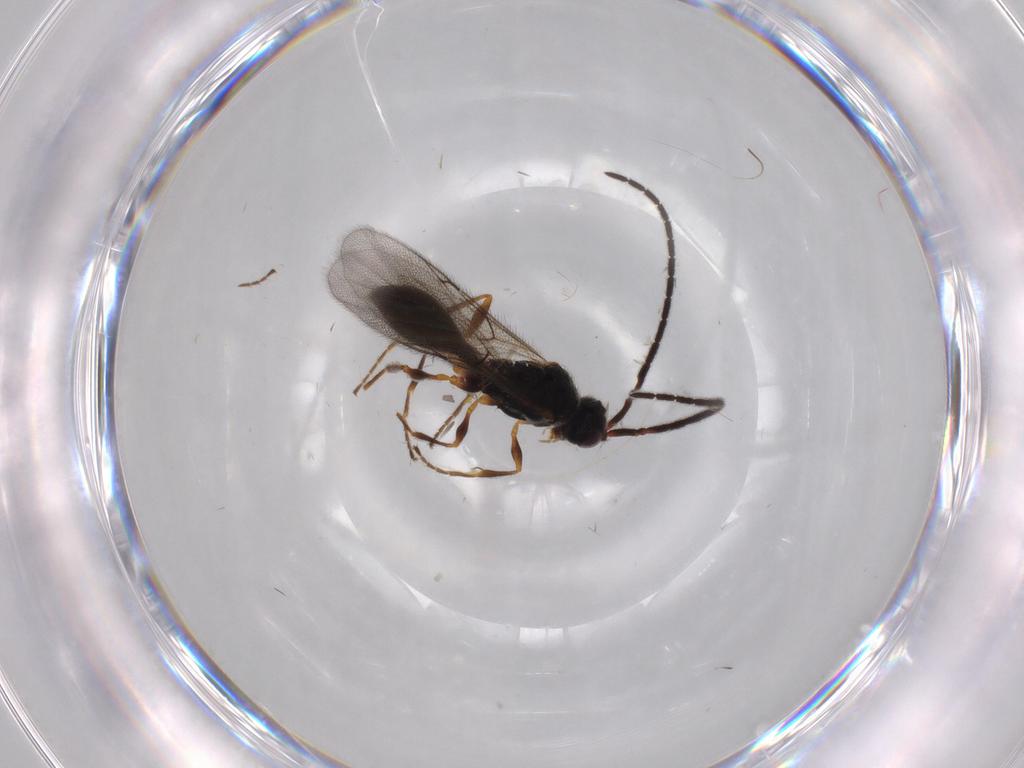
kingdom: Animalia
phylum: Arthropoda
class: Insecta
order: Hymenoptera
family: Diapriidae
